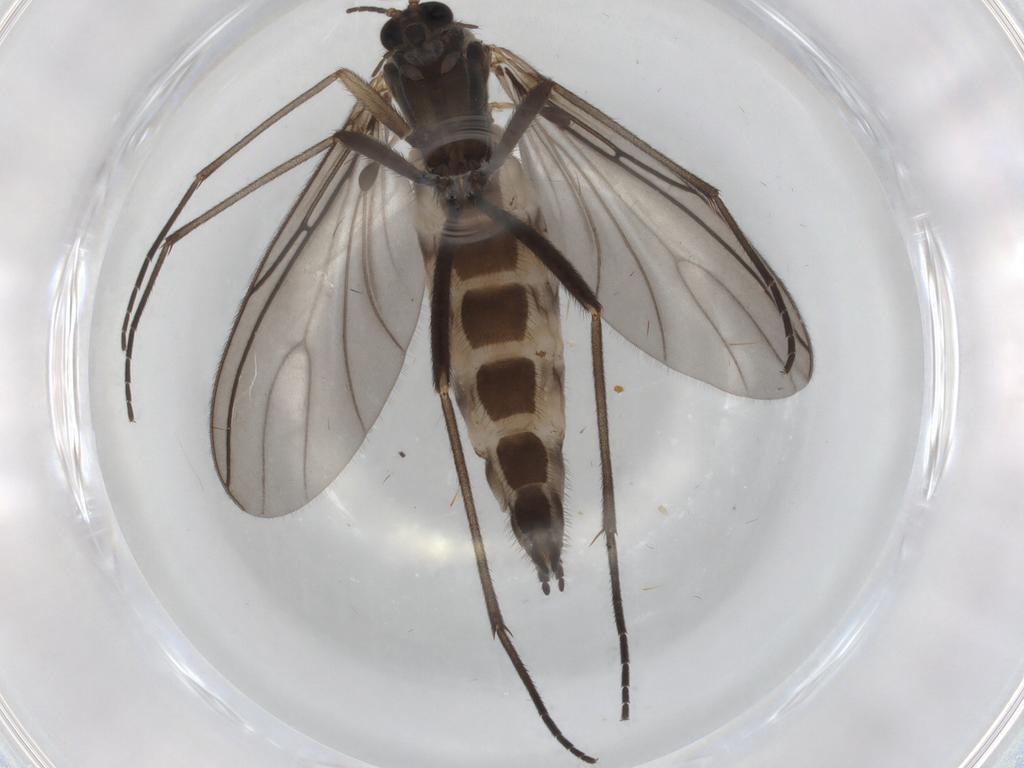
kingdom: Animalia
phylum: Arthropoda
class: Insecta
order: Diptera
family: Sciaridae
